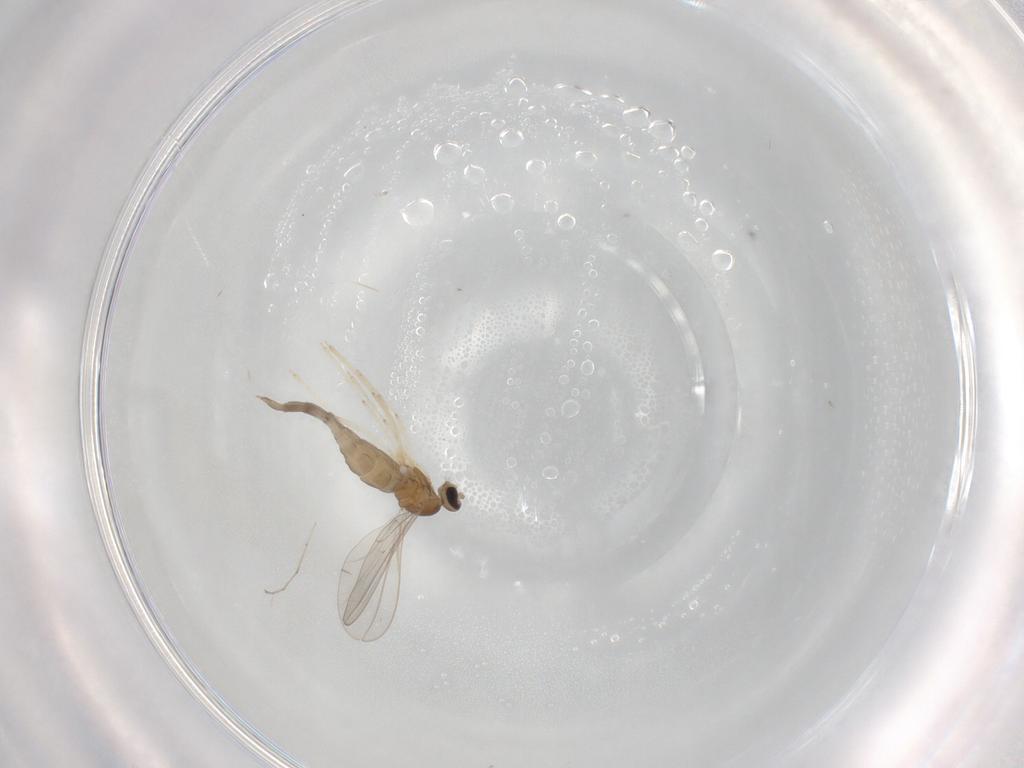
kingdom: Animalia
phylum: Arthropoda
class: Insecta
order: Diptera
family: Cecidomyiidae
